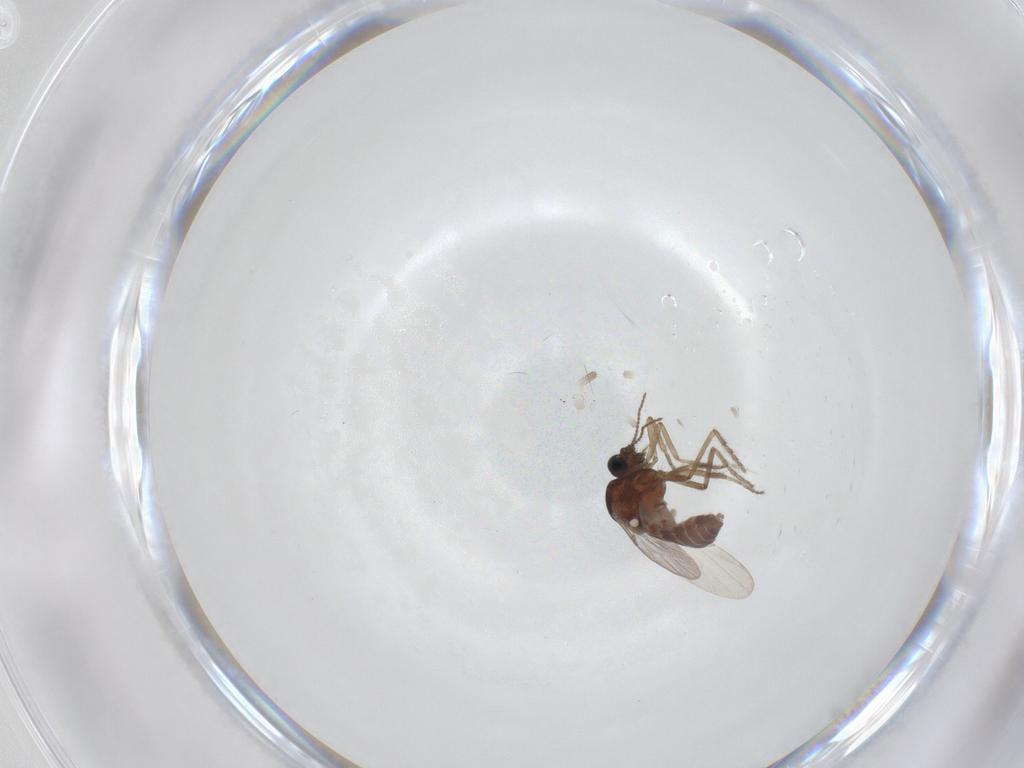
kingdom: Animalia
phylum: Arthropoda
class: Insecta
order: Diptera
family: Ceratopogonidae
